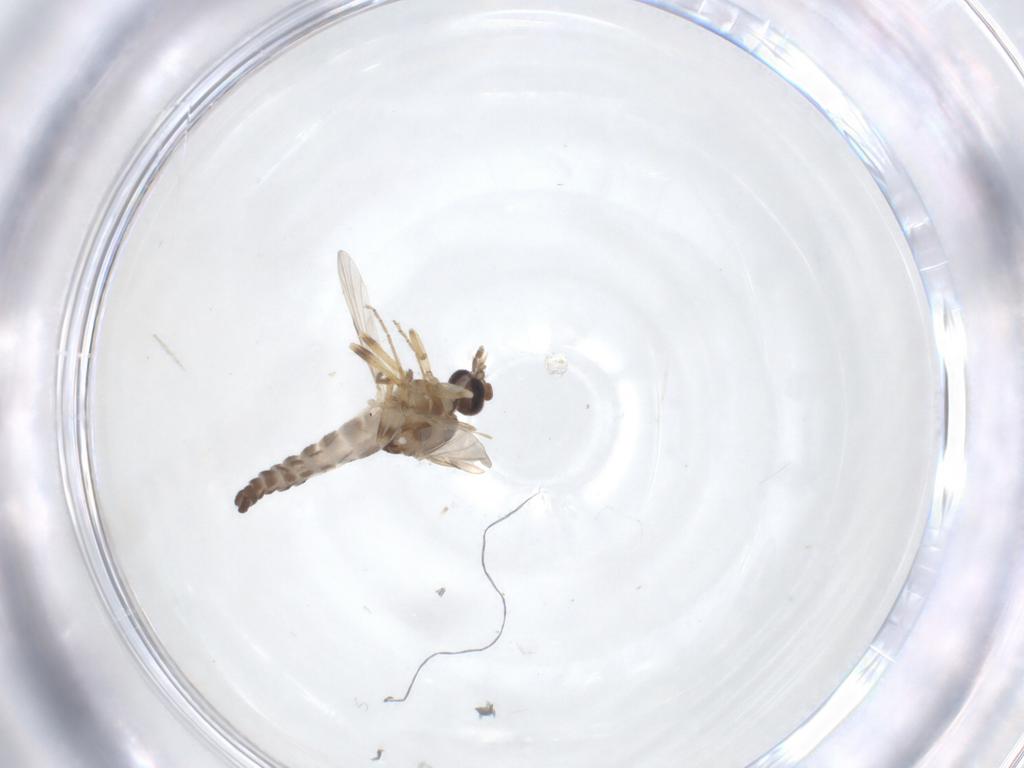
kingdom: Animalia
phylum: Arthropoda
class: Insecta
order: Diptera
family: Ceratopogonidae
